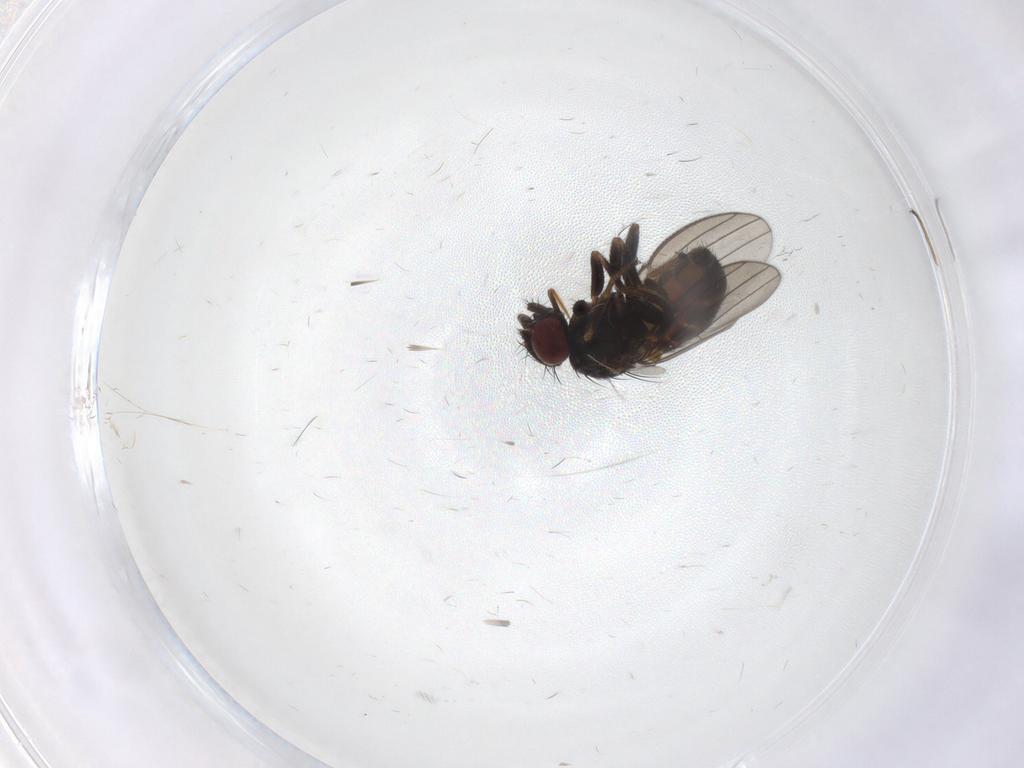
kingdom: Animalia
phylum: Arthropoda
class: Insecta
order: Diptera
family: Milichiidae
